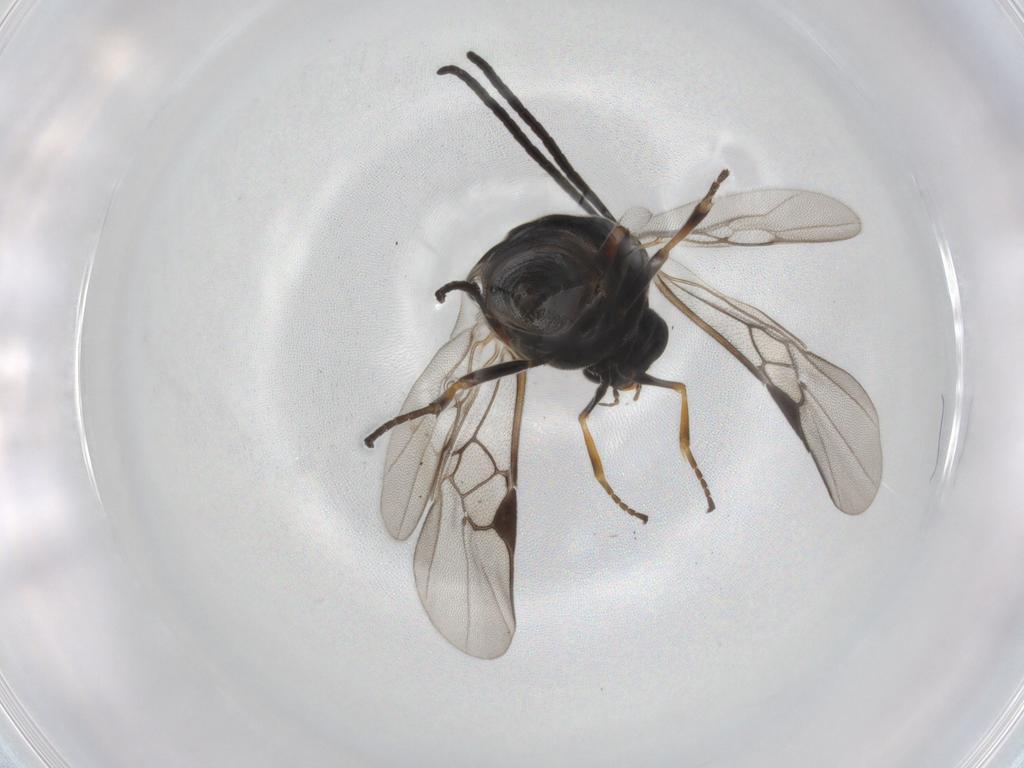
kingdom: Animalia
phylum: Arthropoda
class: Insecta
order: Hymenoptera
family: Braconidae
